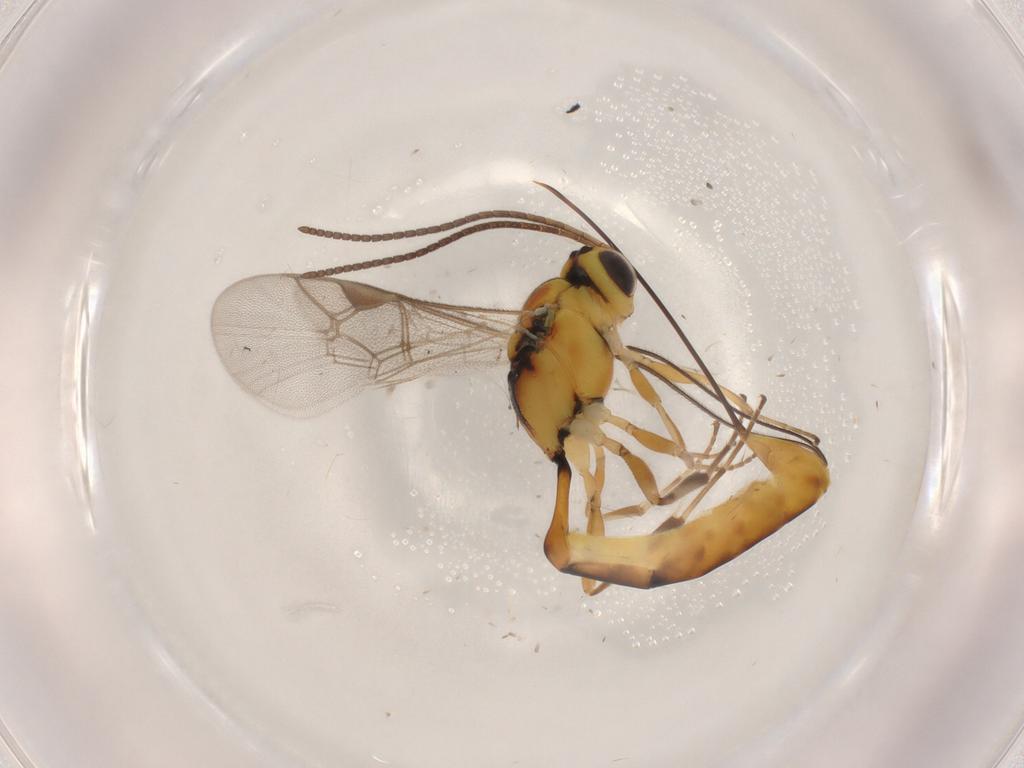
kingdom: Animalia
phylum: Arthropoda
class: Insecta
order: Hymenoptera
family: Ichneumonidae
